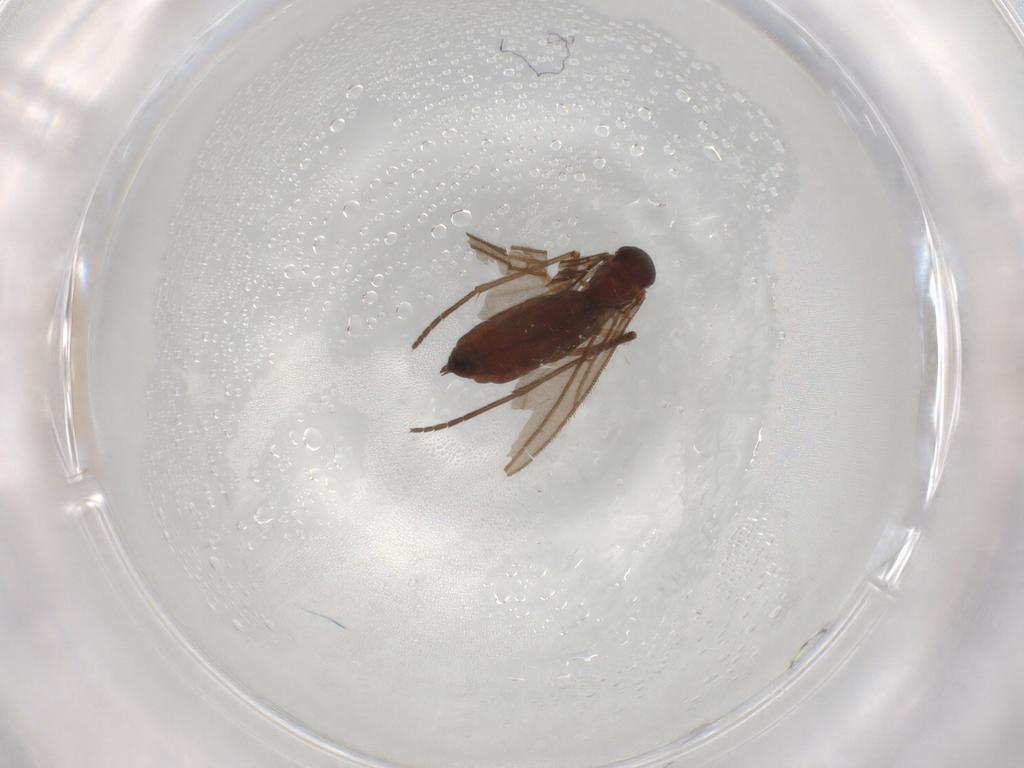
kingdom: Animalia
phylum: Arthropoda
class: Insecta
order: Diptera
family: Sciaridae
